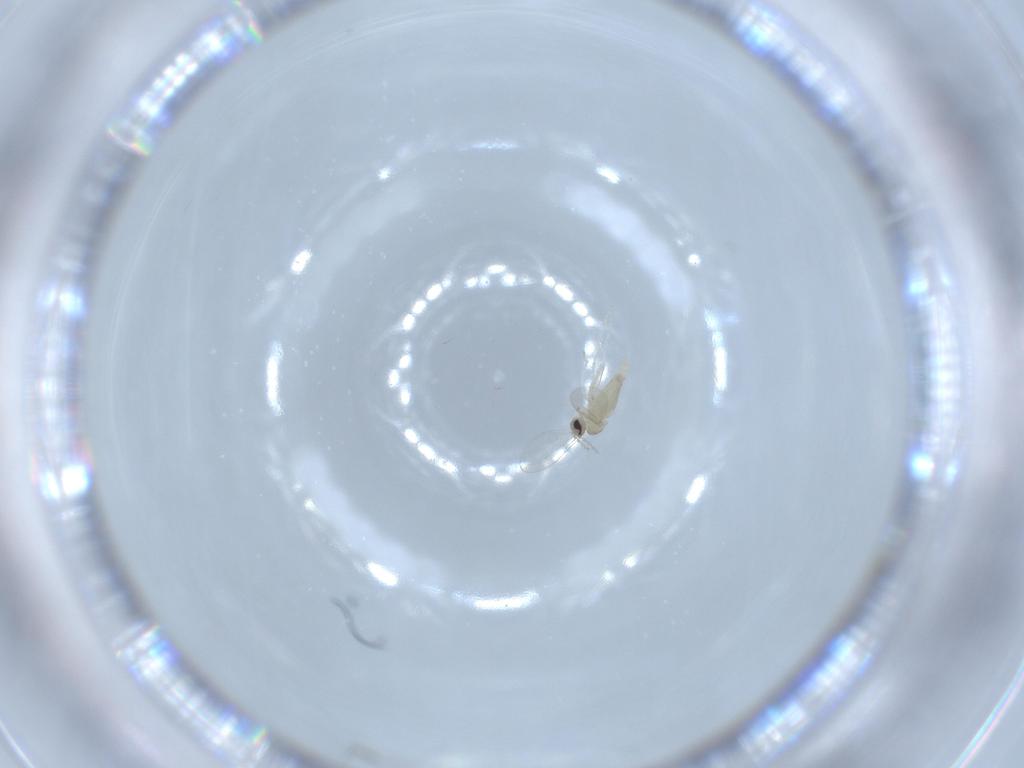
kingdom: Animalia
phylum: Arthropoda
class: Insecta
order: Diptera
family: Cecidomyiidae
